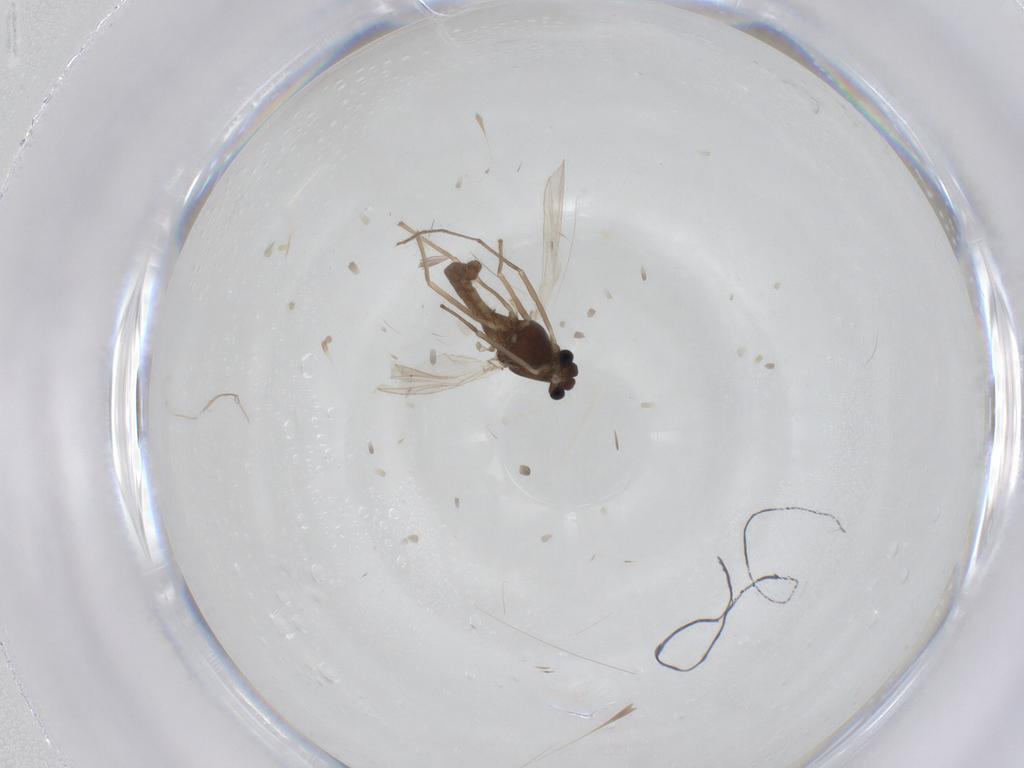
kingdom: Animalia
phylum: Arthropoda
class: Insecta
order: Diptera
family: Chironomidae
